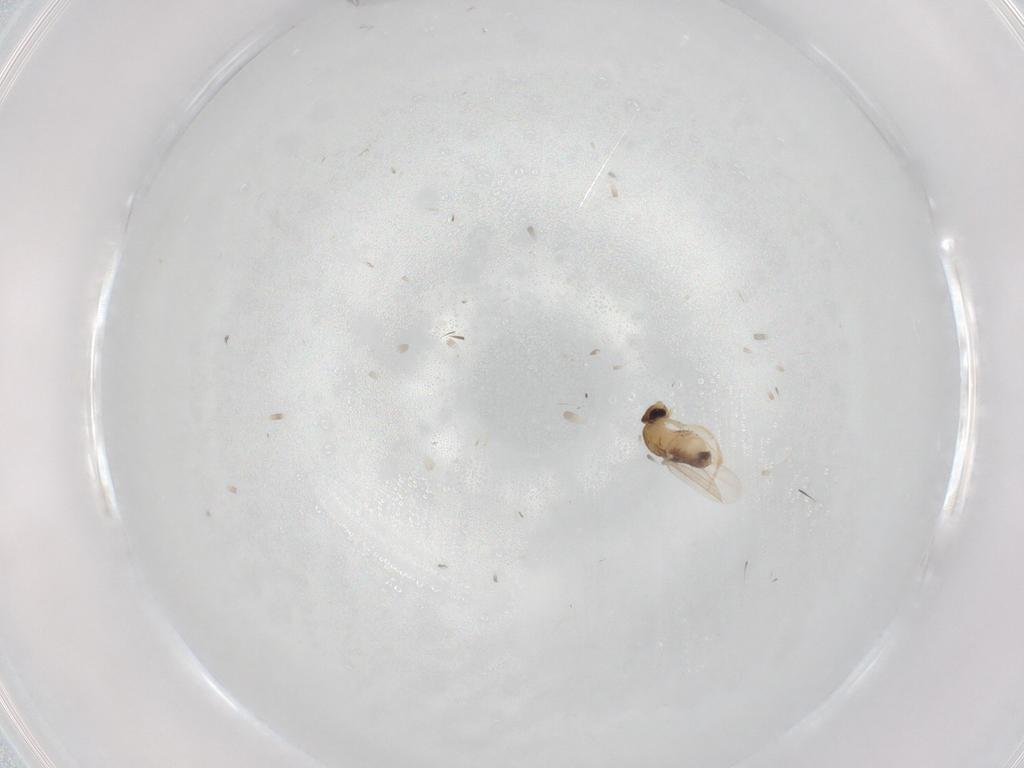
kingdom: Animalia
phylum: Arthropoda
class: Insecta
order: Diptera
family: Phoridae
